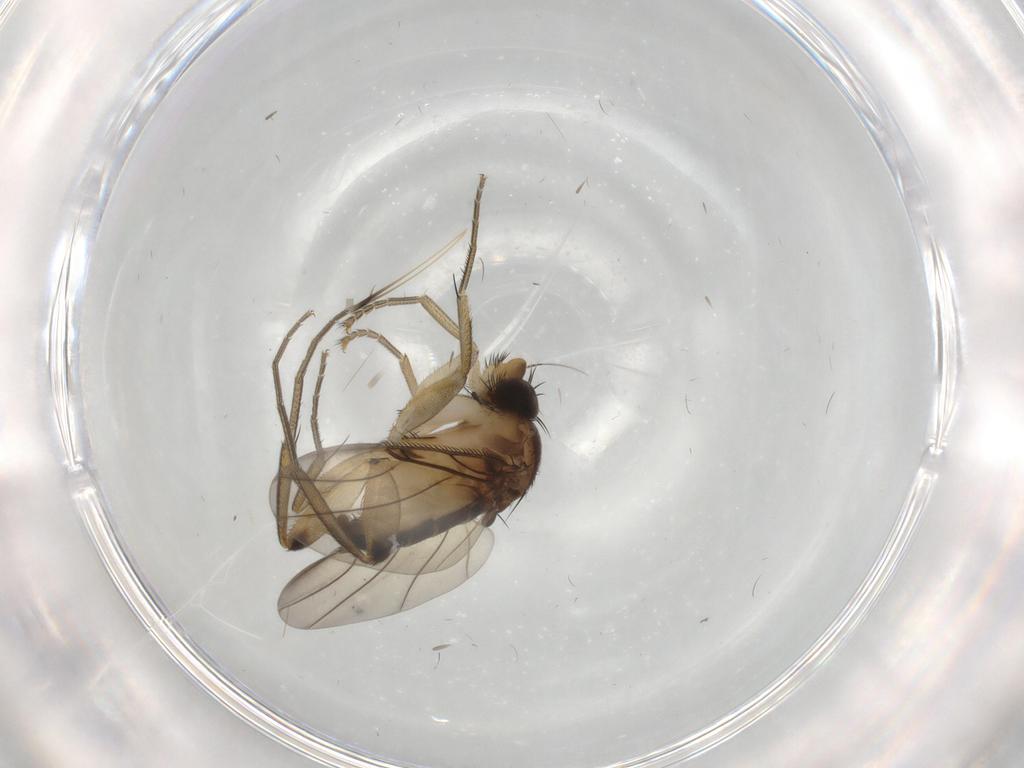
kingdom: Animalia
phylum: Arthropoda
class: Insecta
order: Diptera
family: Phoridae
